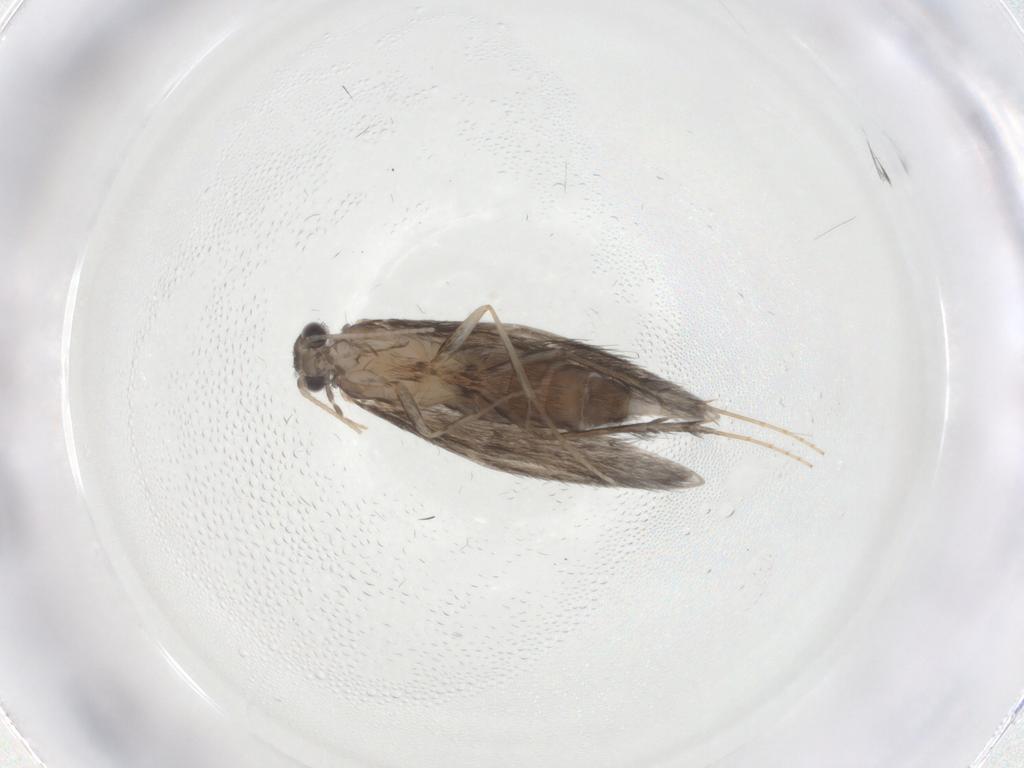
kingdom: Animalia
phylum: Arthropoda
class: Insecta
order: Trichoptera
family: Hydroptilidae
